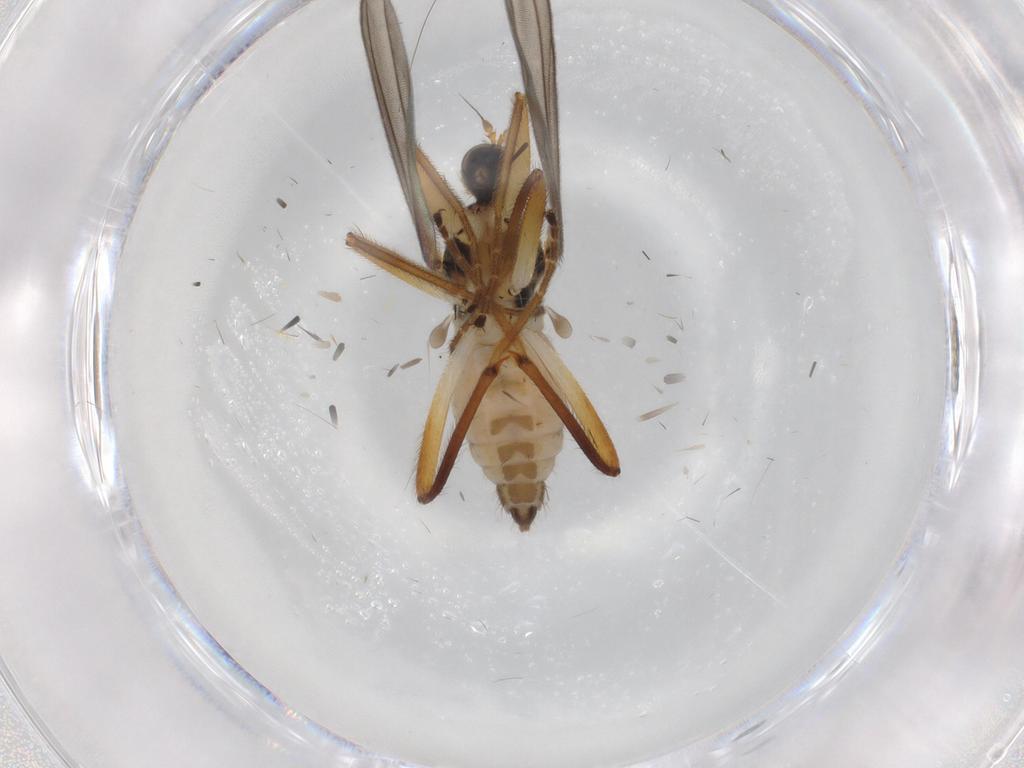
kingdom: Animalia
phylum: Arthropoda
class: Insecta
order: Diptera
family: Hybotidae
